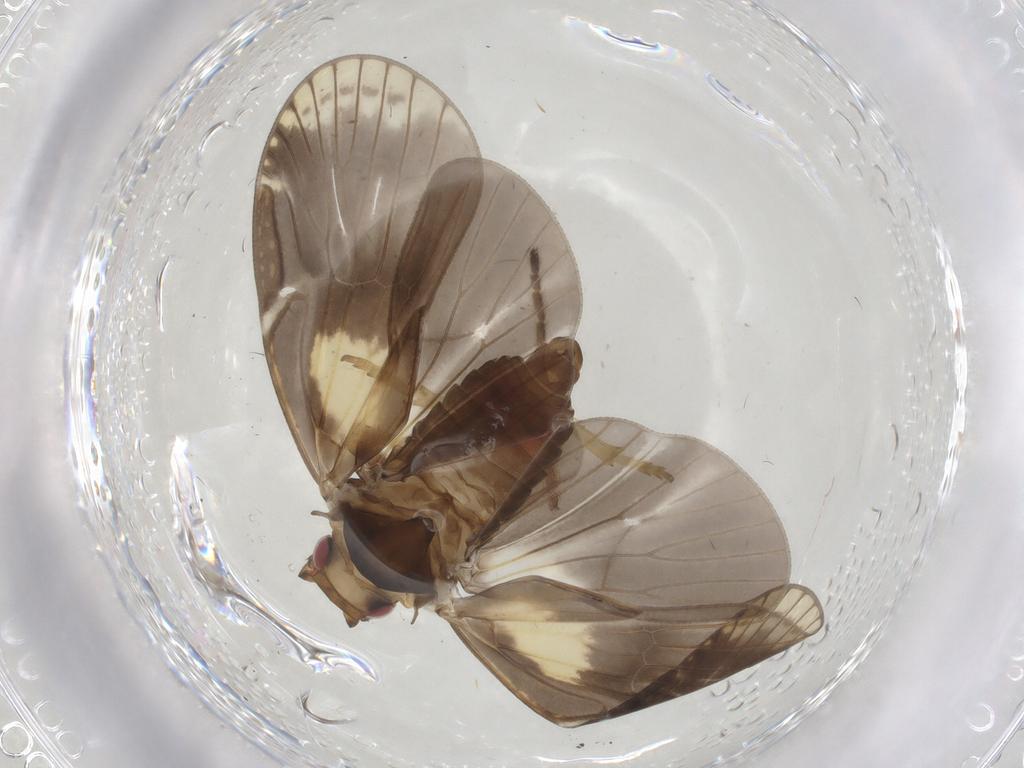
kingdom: Animalia
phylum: Arthropoda
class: Insecta
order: Hemiptera
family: Cixiidae
